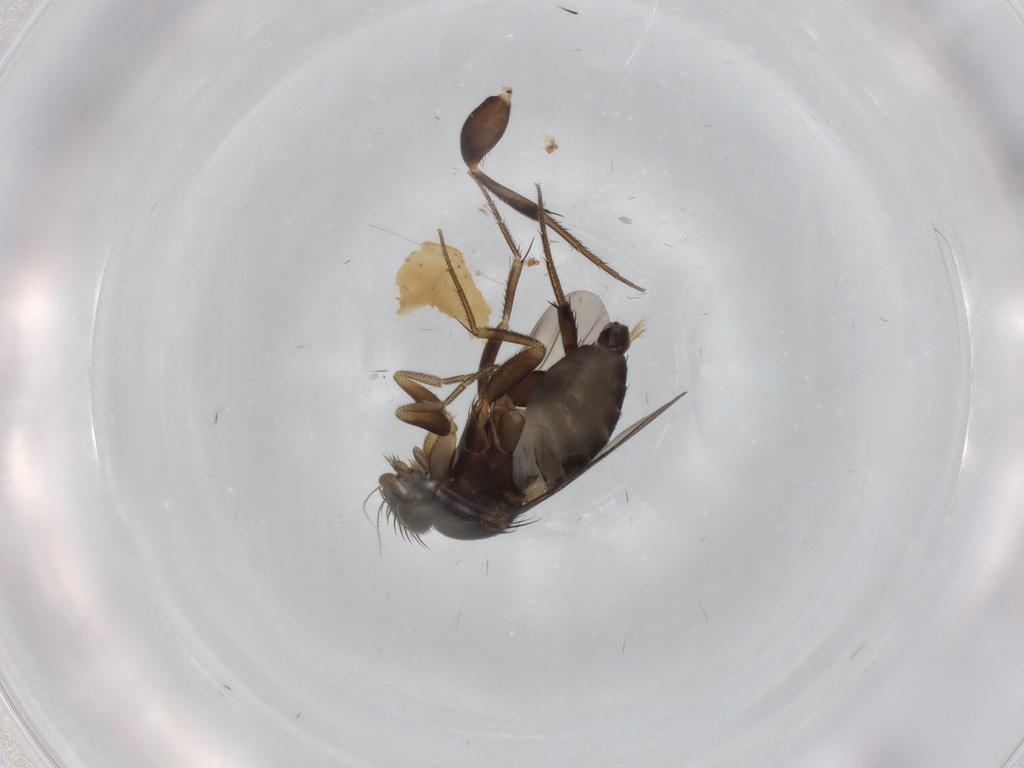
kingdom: Animalia
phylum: Arthropoda
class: Insecta
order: Diptera
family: Phoridae
